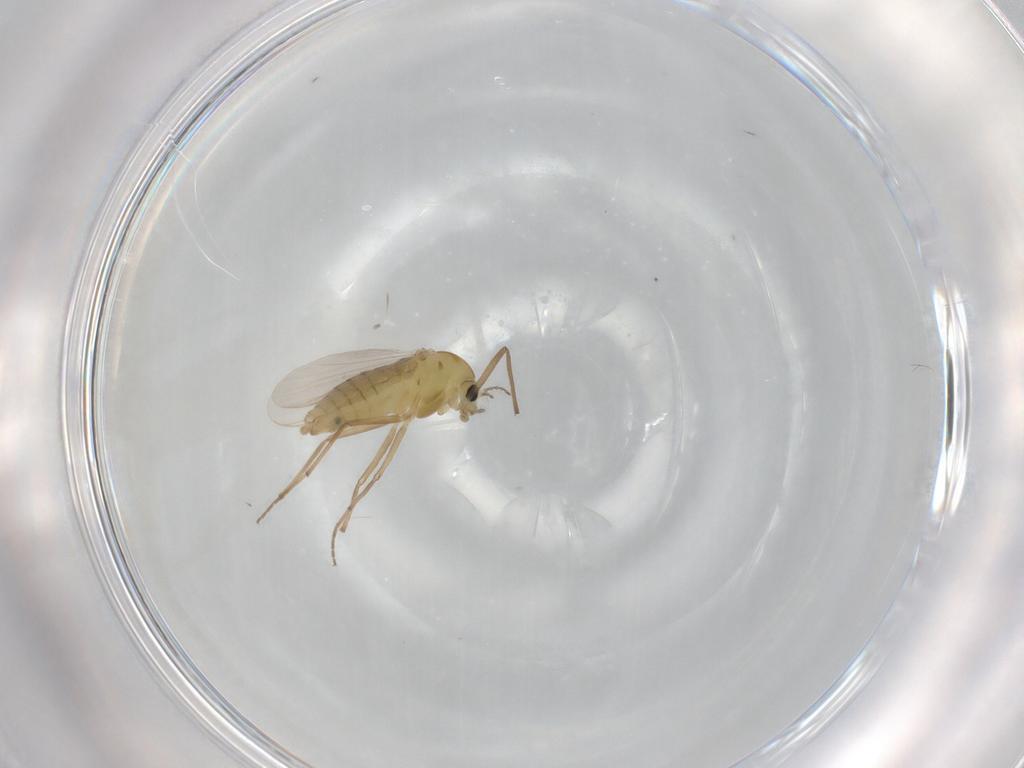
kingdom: Animalia
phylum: Arthropoda
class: Insecta
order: Diptera
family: Chironomidae
